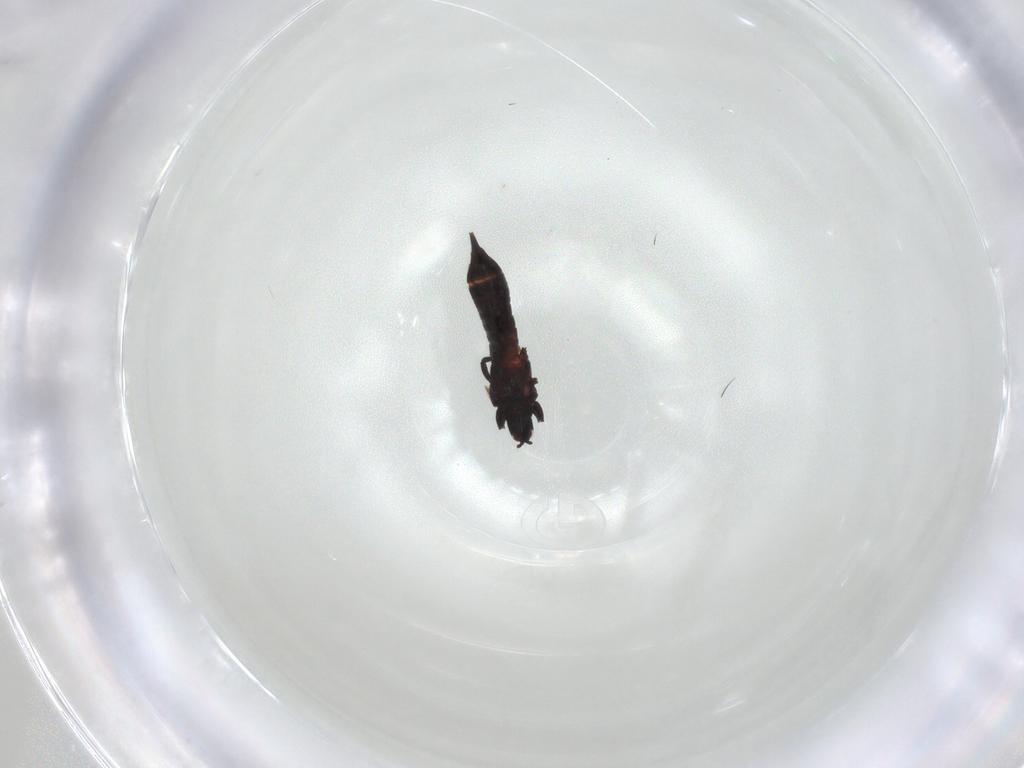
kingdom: Animalia
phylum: Arthropoda
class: Insecta
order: Thysanoptera
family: Phlaeothripidae
